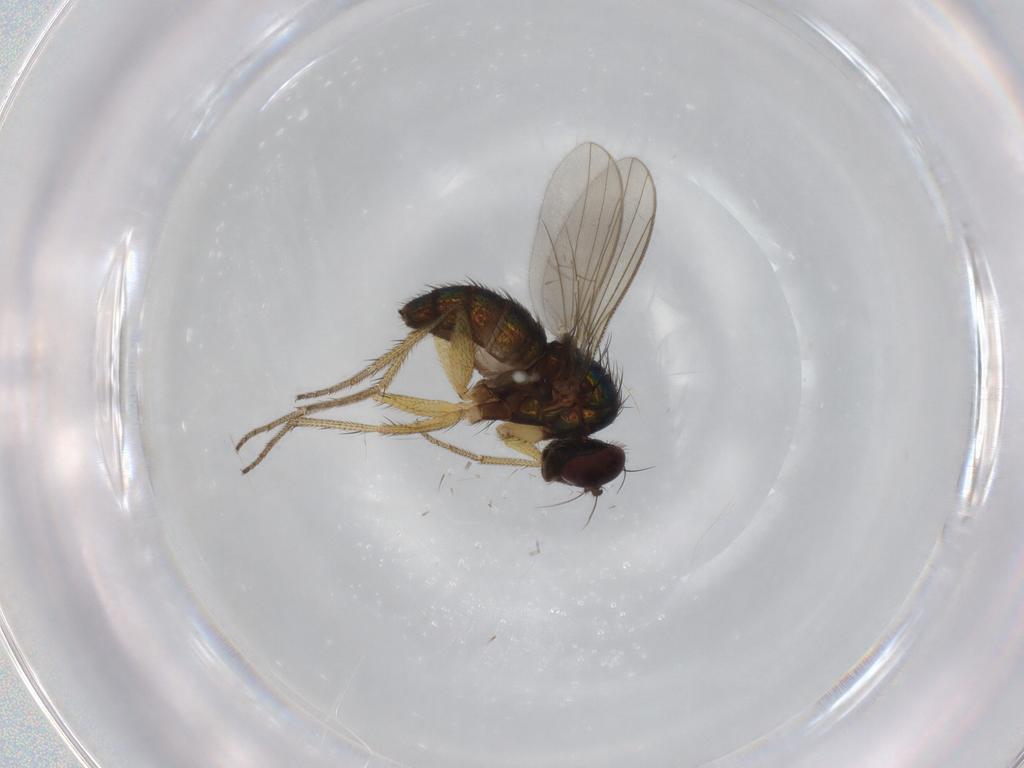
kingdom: Animalia
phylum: Arthropoda
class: Insecta
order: Diptera
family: Dolichopodidae
